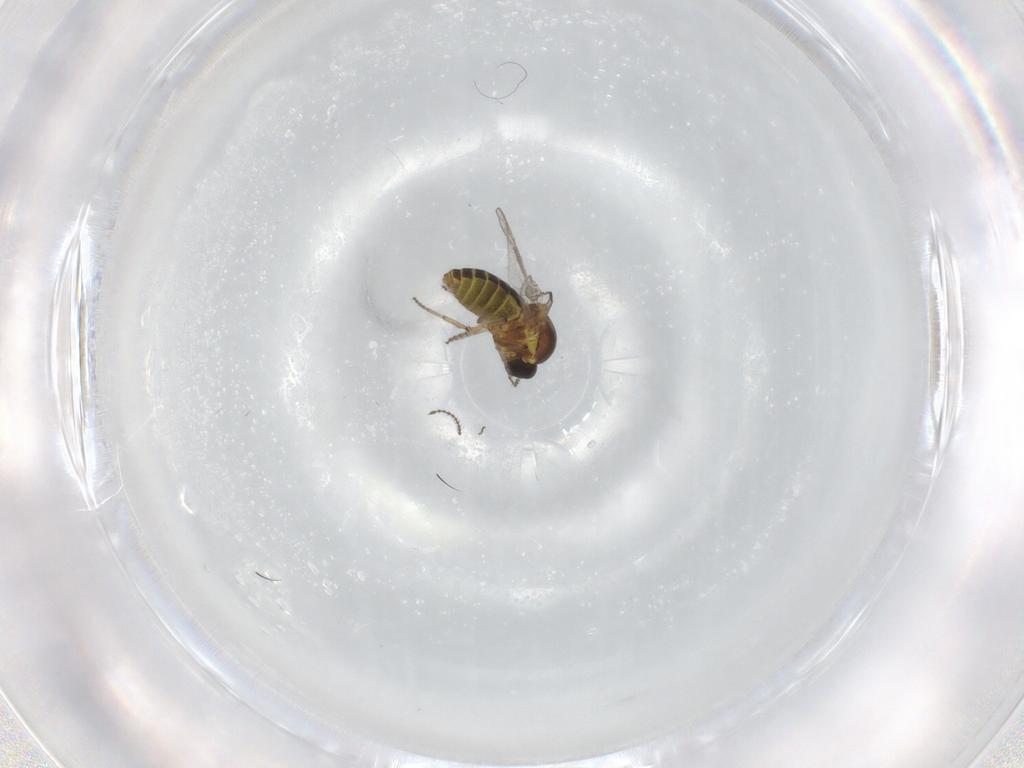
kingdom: Animalia
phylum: Arthropoda
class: Insecta
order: Diptera
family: Ceratopogonidae
